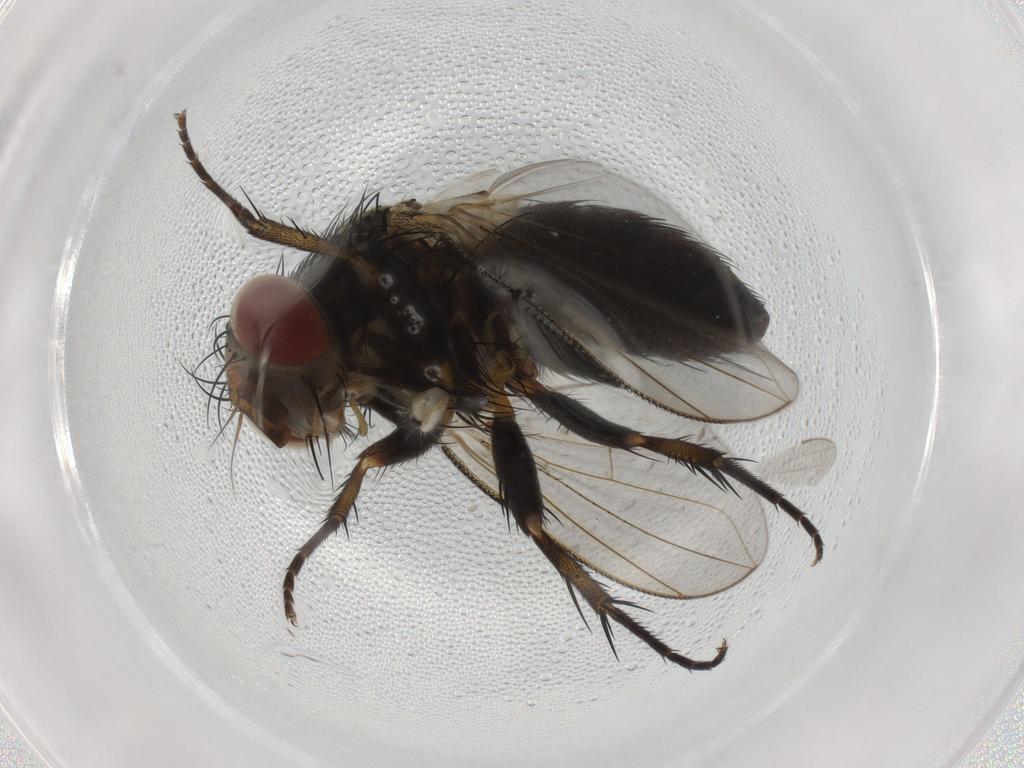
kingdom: Animalia
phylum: Arthropoda
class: Insecta
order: Diptera
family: Tachinidae
